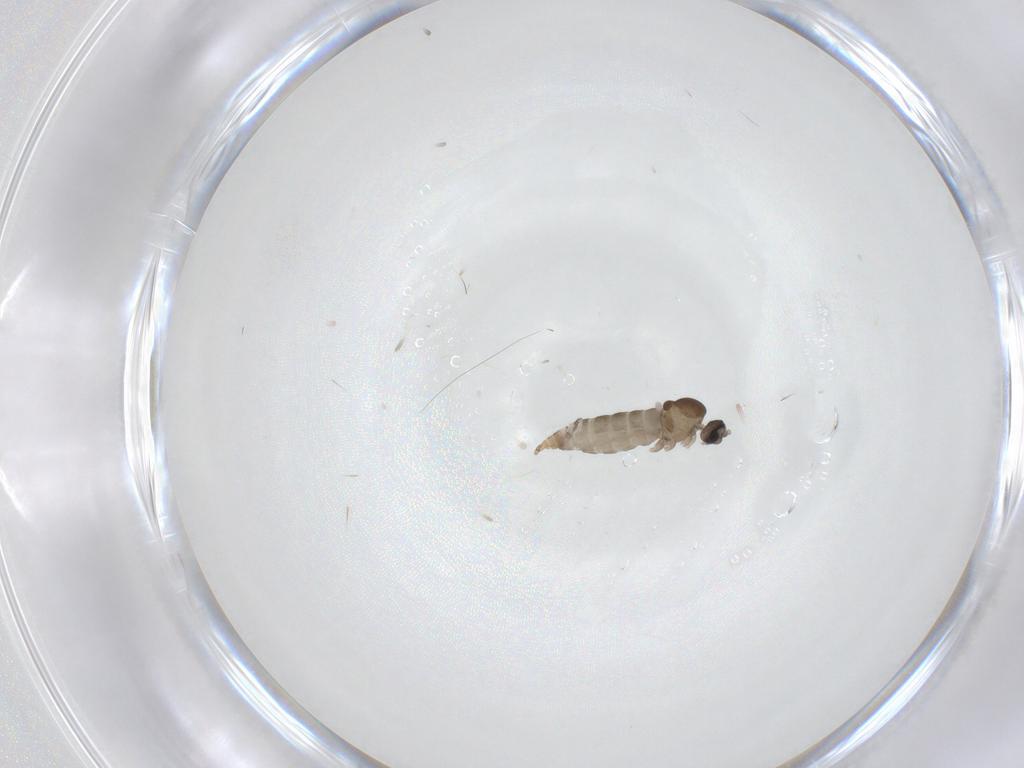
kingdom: Animalia
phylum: Arthropoda
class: Insecta
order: Diptera
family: Cecidomyiidae
